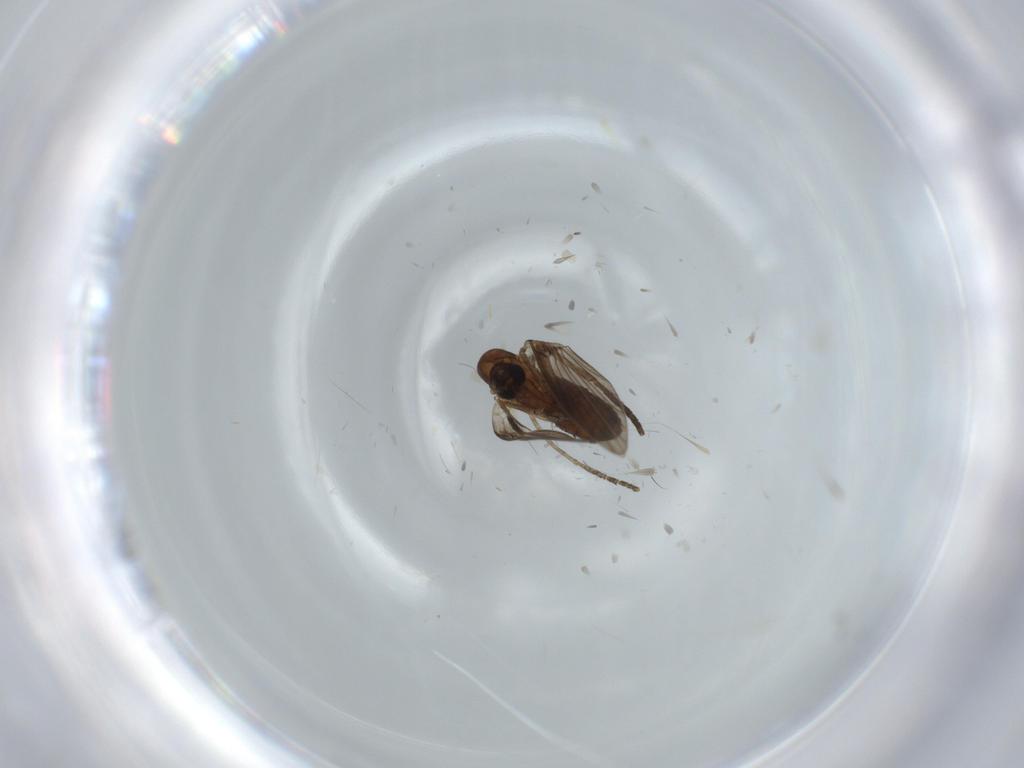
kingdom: Animalia
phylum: Arthropoda
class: Insecta
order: Diptera
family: Psychodidae
